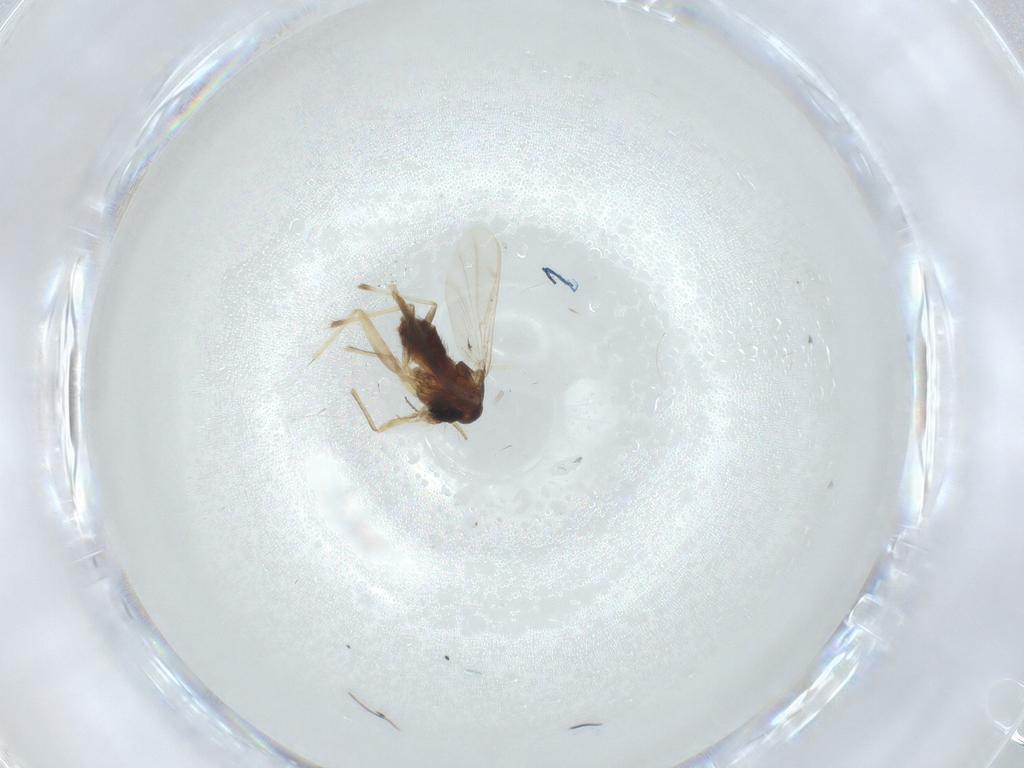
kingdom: Animalia
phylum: Arthropoda
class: Insecta
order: Diptera
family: Chironomidae
